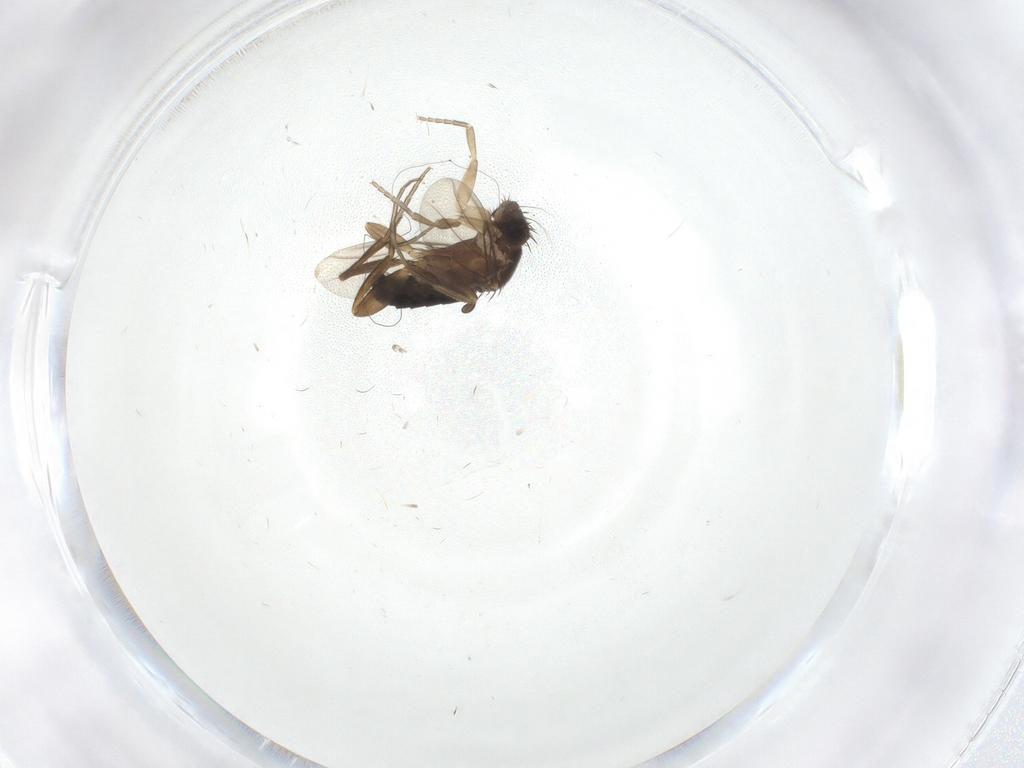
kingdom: Animalia
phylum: Arthropoda
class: Insecta
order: Diptera
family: Phoridae
